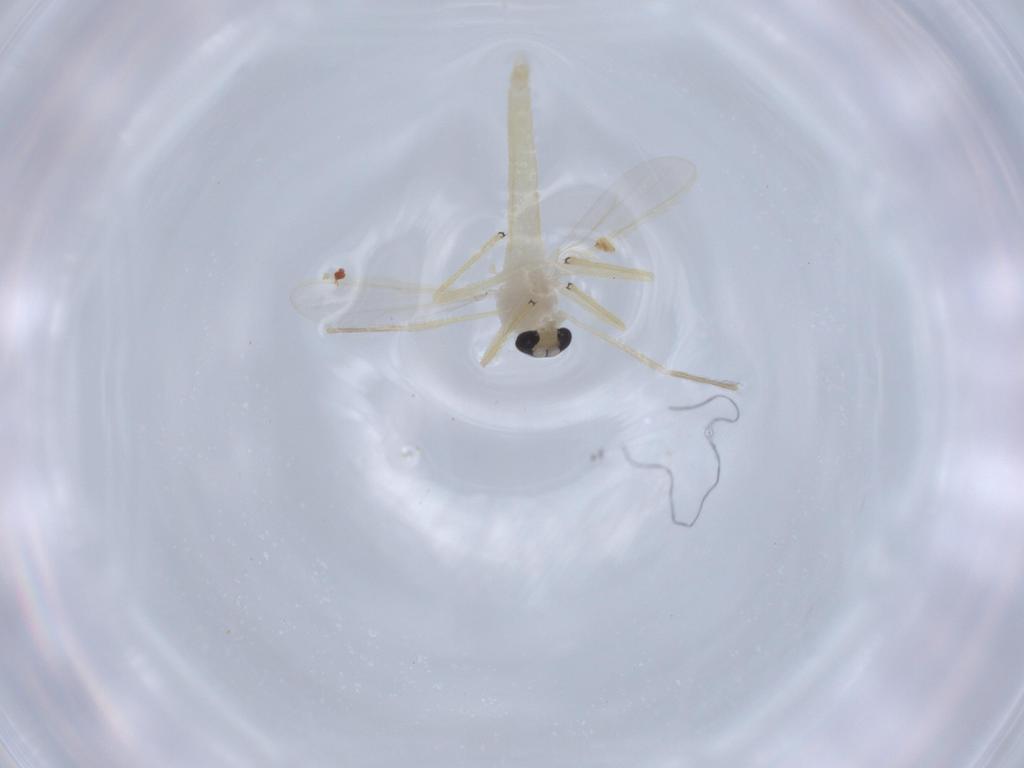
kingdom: Animalia
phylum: Arthropoda
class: Insecta
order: Diptera
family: Chironomidae
